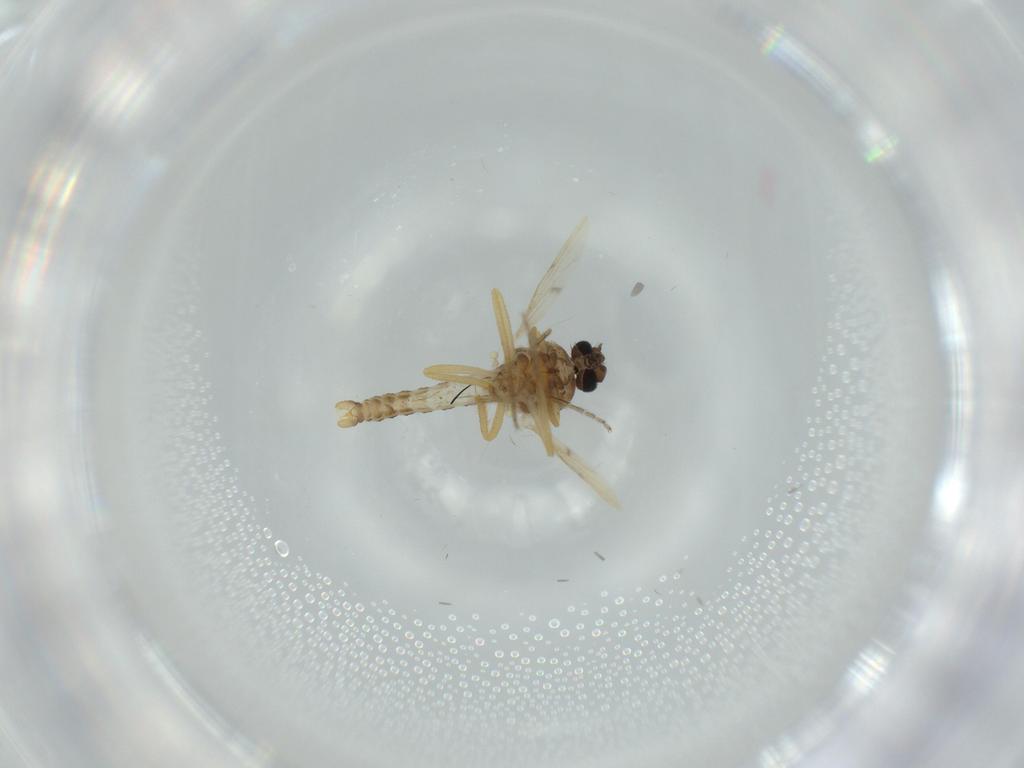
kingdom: Animalia
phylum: Arthropoda
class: Insecta
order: Diptera
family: Ceratopogonidae
